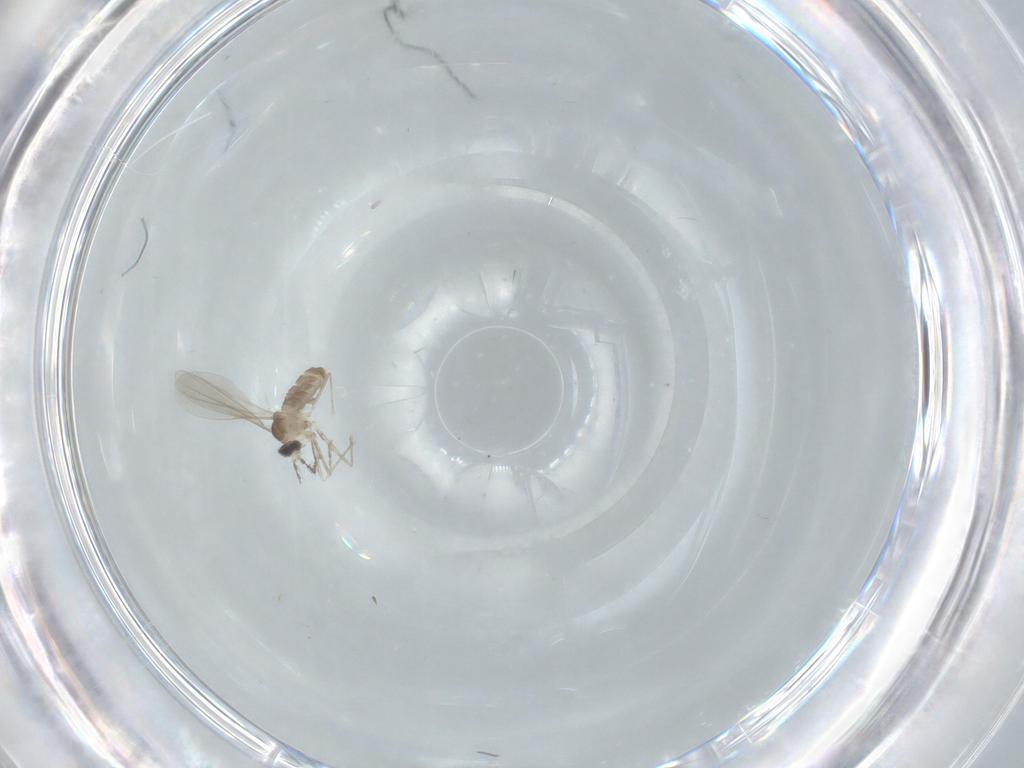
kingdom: Animalia
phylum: Arthropoda
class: Insecta
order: Diptera
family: Cecidomyiidae
